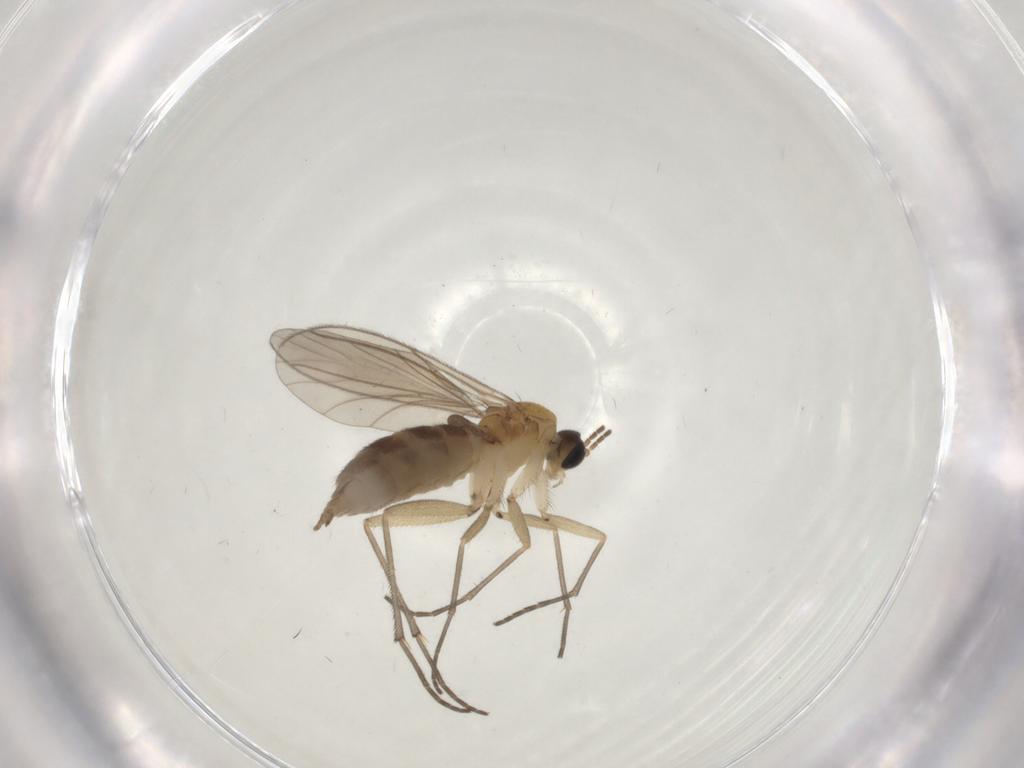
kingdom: Animalia
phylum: Arthropoda
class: Insecta
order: Diptera
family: Sciaridae
